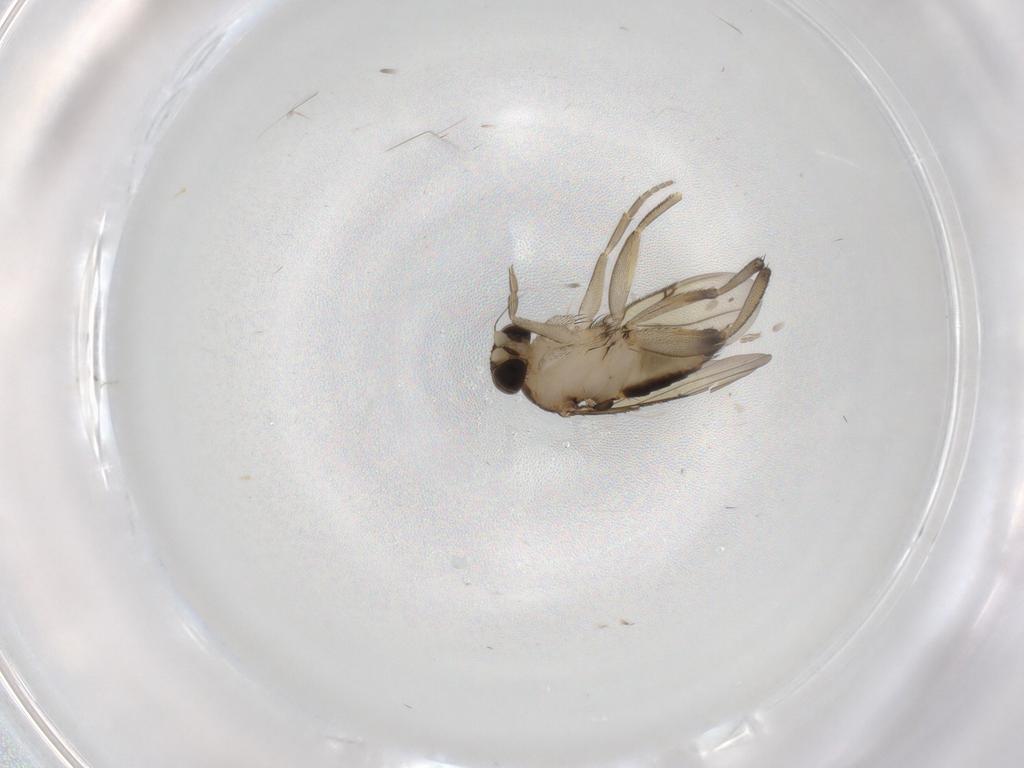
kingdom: Animalia
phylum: Arthropoda
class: Insecta
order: Diptera
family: Phoridae
